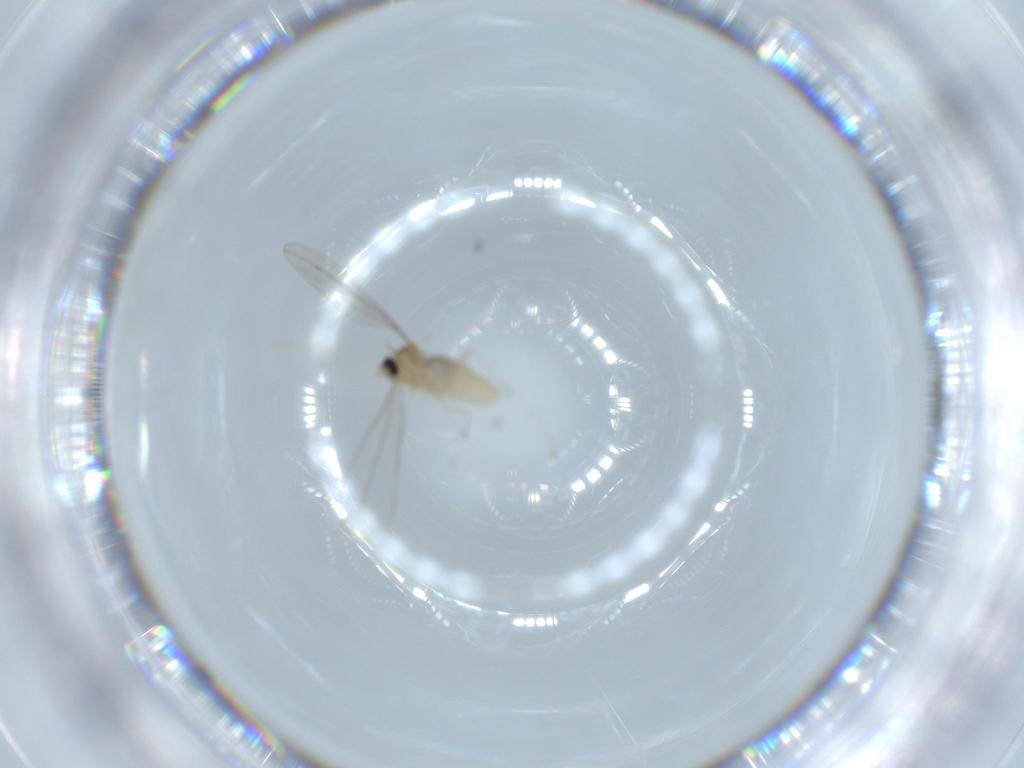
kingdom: Animalia
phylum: Arthropoda
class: Insecta
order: Diptera
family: Cecidomyiidae
